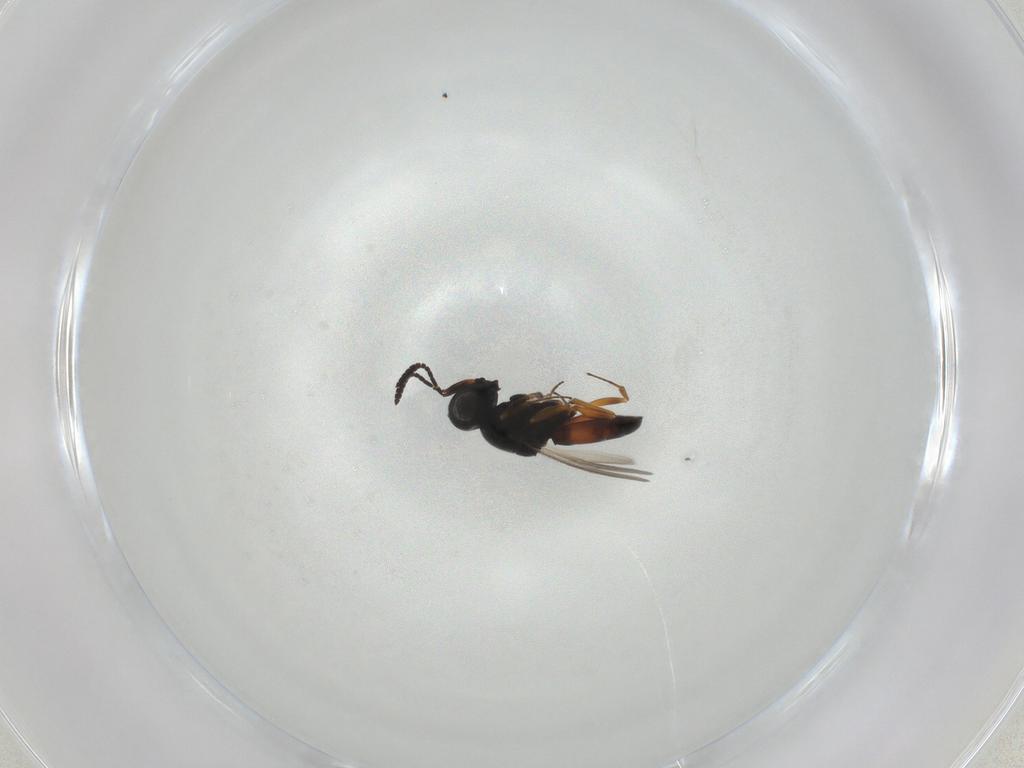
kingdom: Animalia
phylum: Arthropoda
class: Insecta
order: Hymenoptera
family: Scelionidae
